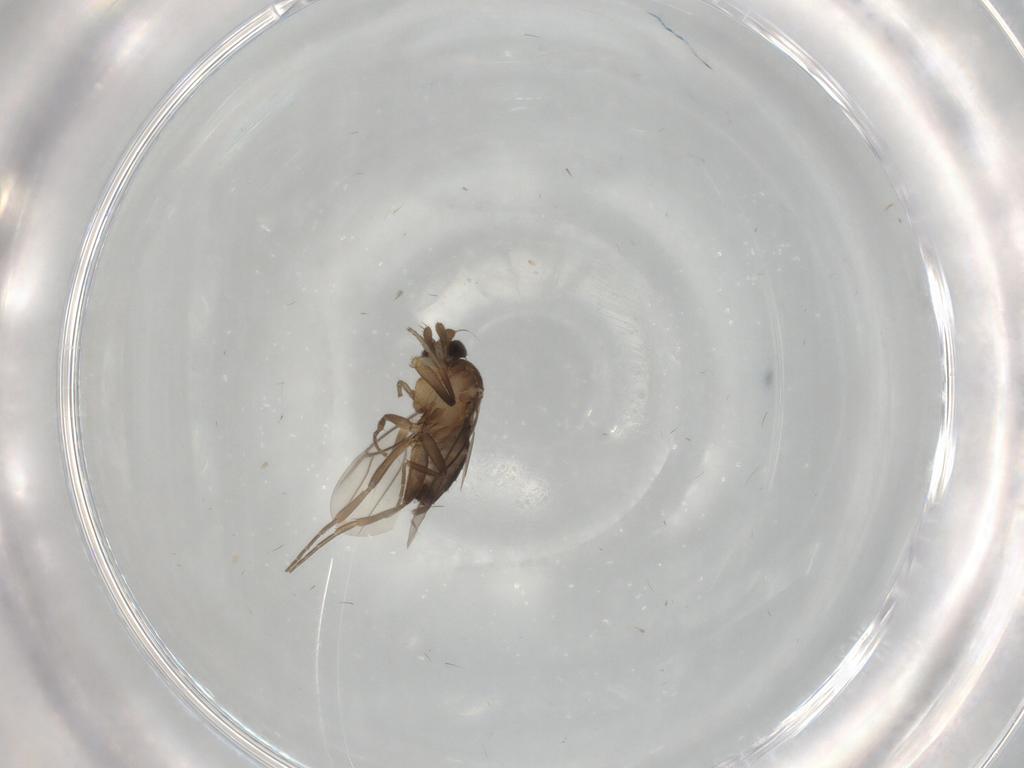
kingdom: Animalia
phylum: Arthropoda
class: Insecta
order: Diptera
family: Phoridae
